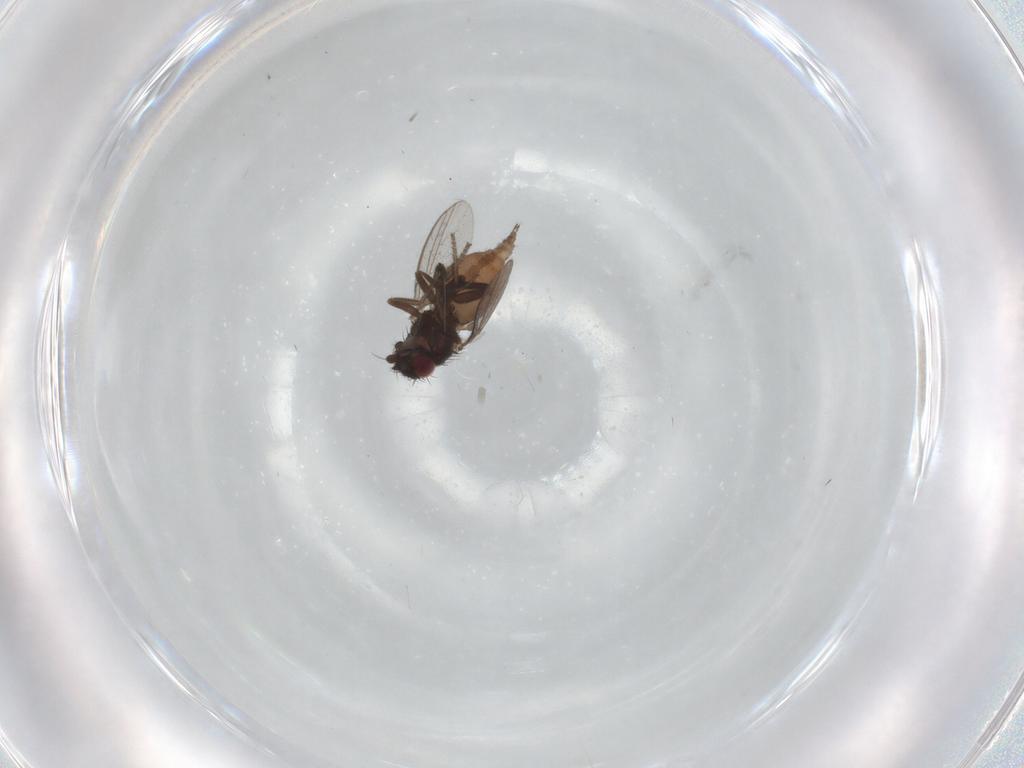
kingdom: Animalia
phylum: Arthropoda
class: Insecta
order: Diptera
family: Milichiidae
